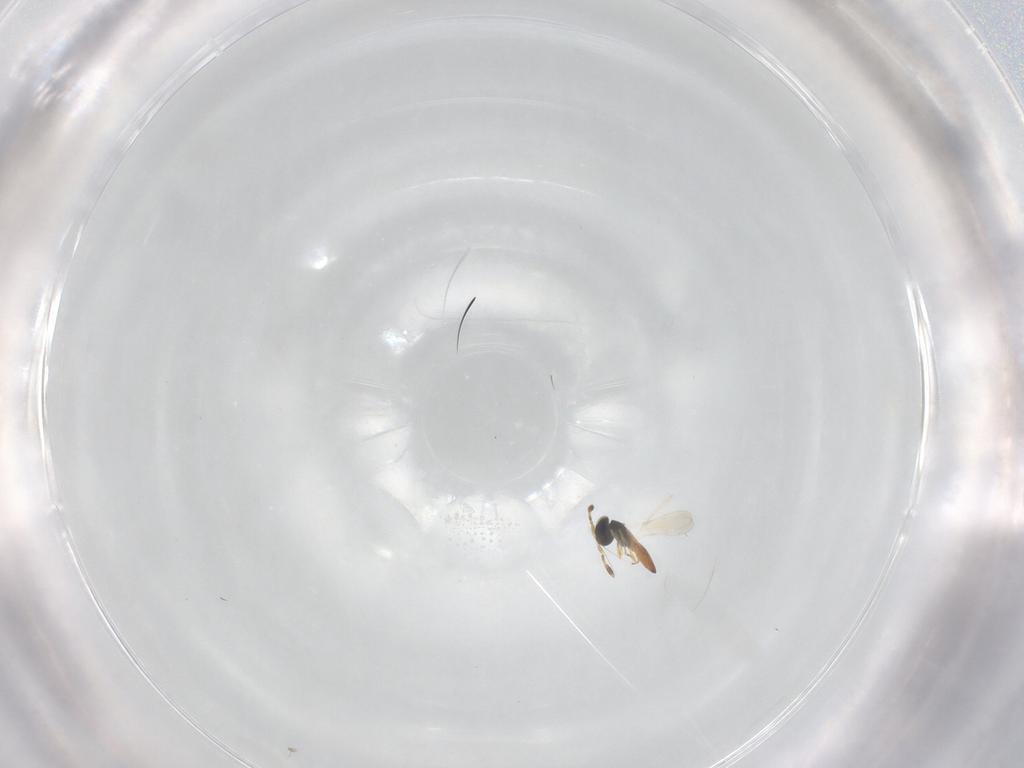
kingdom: Animalia
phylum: Arthropoda
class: Insecta
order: Hymenoptera
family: Scelionidae
